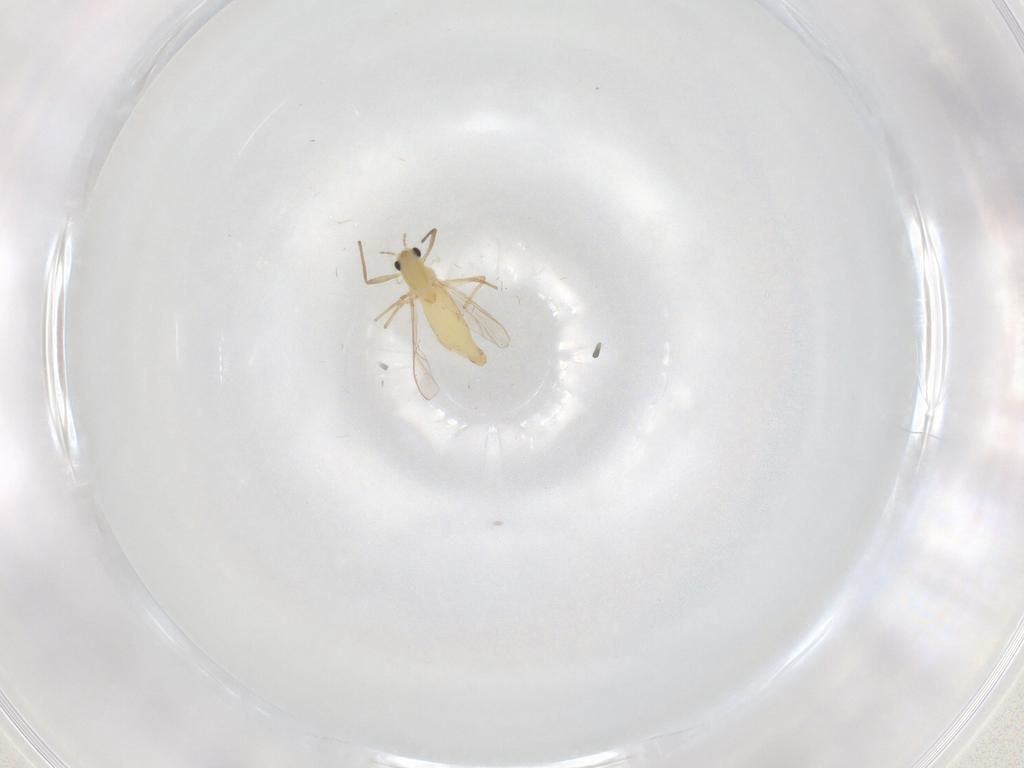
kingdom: Animalia
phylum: Arthropoda
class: Insecta
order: Diptera
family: Chironomidae
